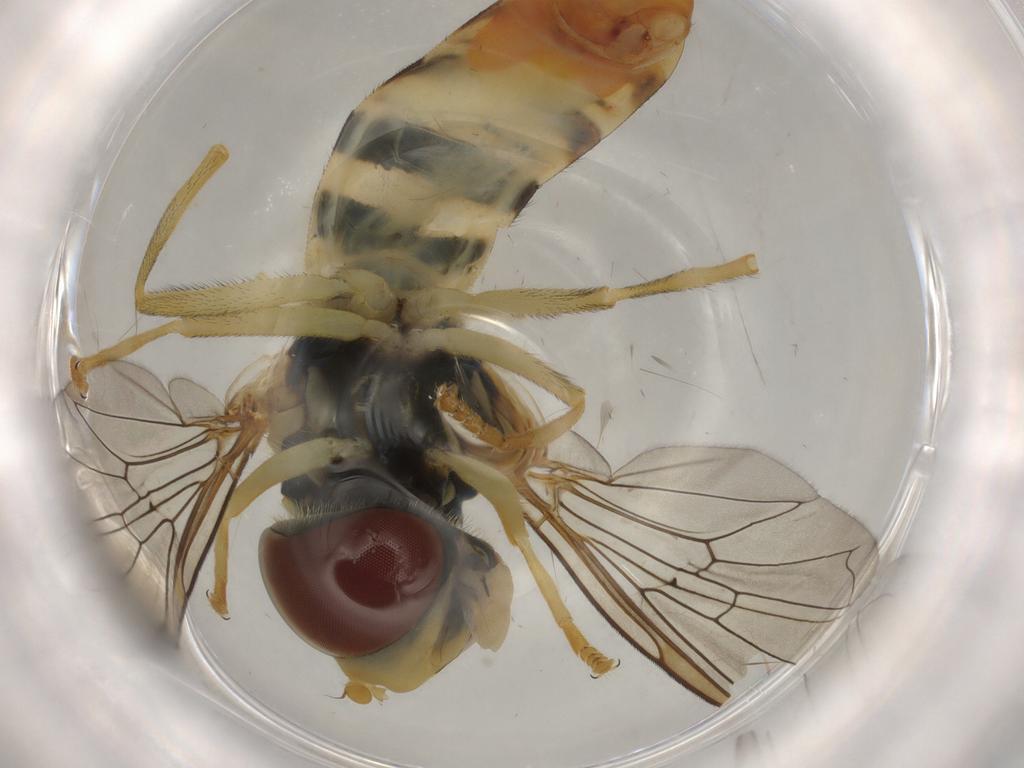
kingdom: Animalia
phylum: Arthropoda
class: Insecta
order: Diptera
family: Syrphidae
